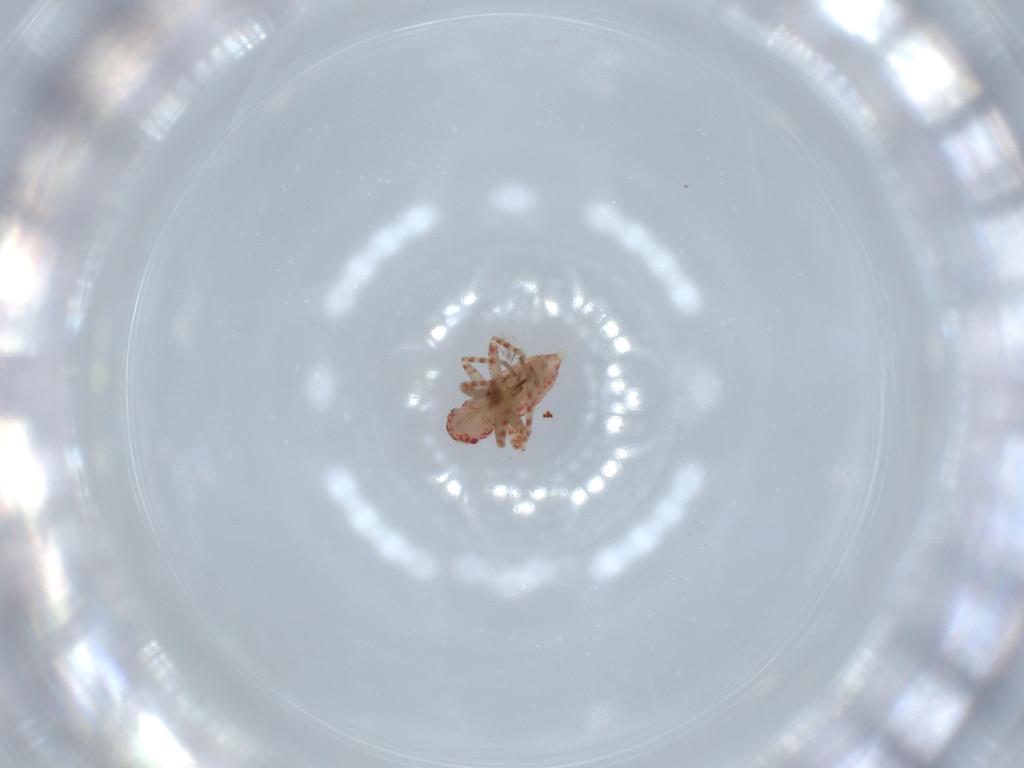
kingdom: Animalia
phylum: Arthropoda
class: Insecta
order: Hemiptera
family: Miridae
